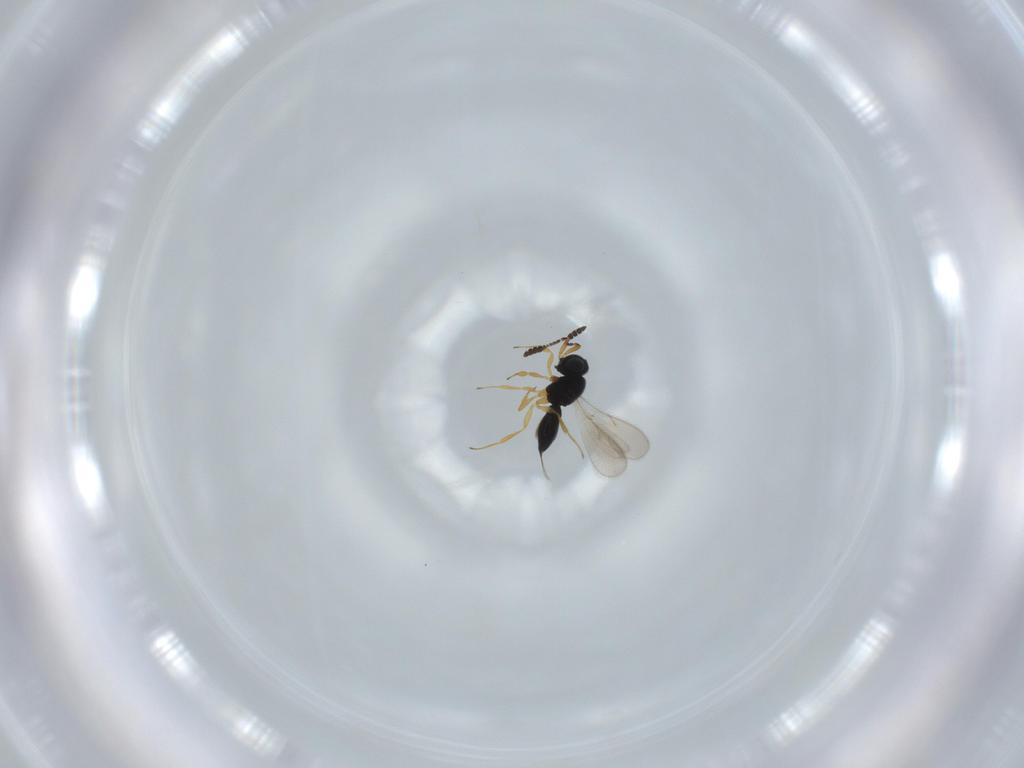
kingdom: Animalia
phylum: Arthropoda
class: Insecta
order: Hymenoptera
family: Scelionidae
